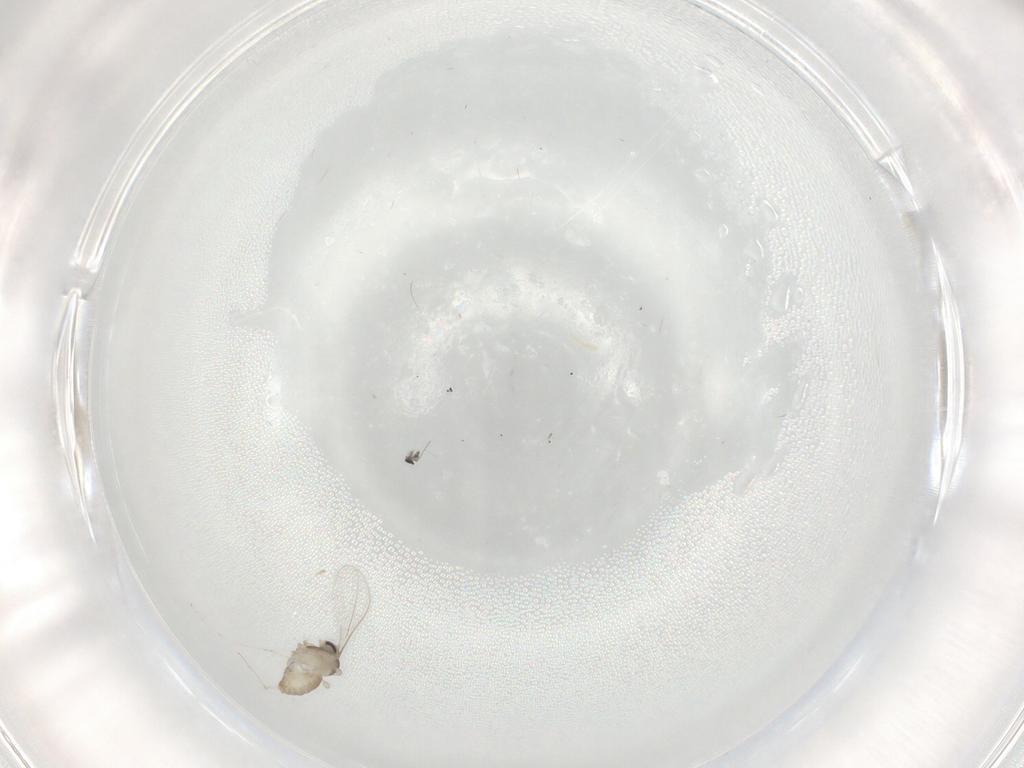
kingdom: Animalia
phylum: Arthropoda
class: Insecta
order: Diptera
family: Cecidomyiidae
